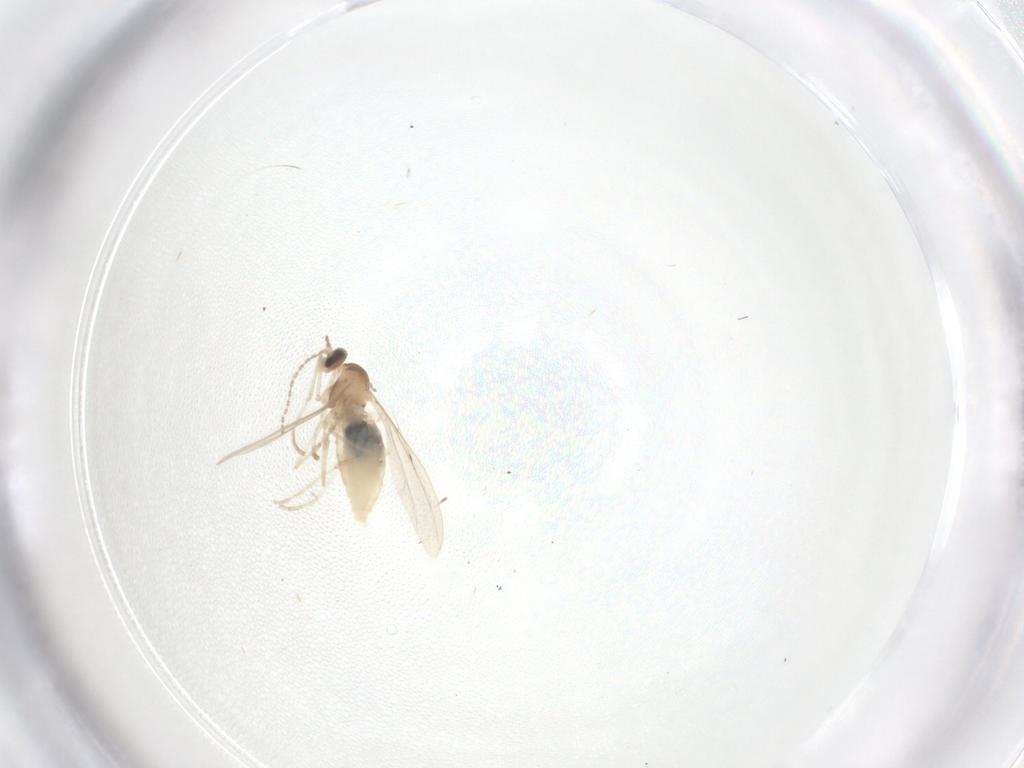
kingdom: Animalia
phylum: Arthropoda
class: Insecta
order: Diptera
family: Cecidomyiidae
